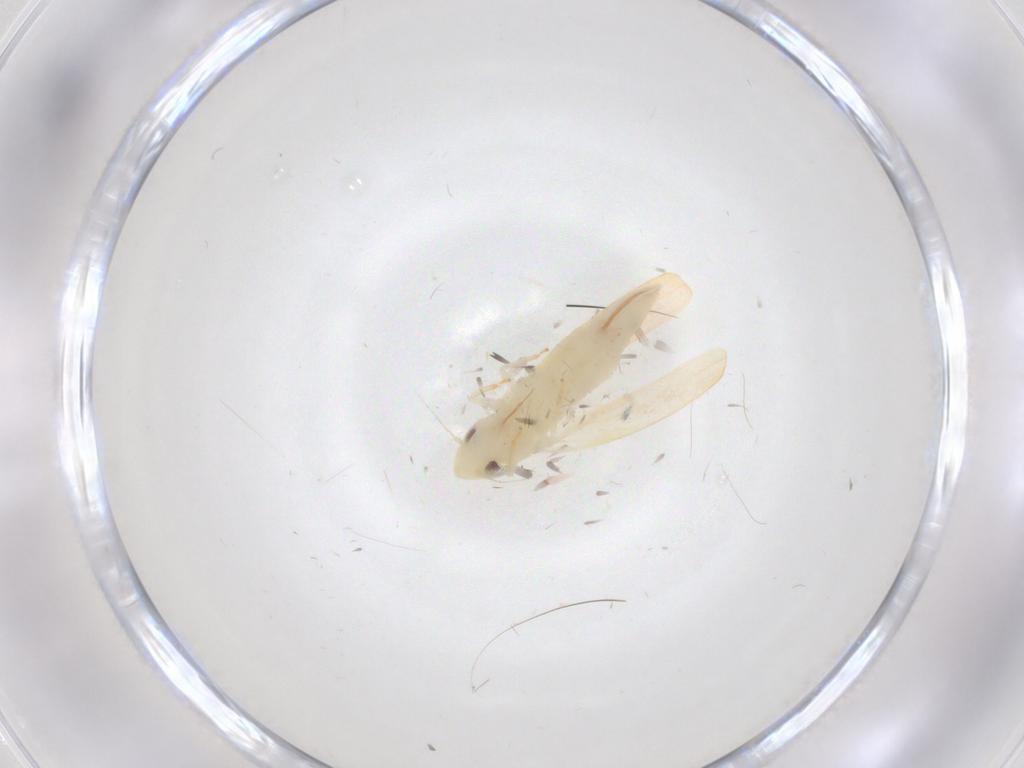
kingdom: Animalia
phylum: Arthropoda
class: Insecta
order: Hemiptera
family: Cicadellidae
